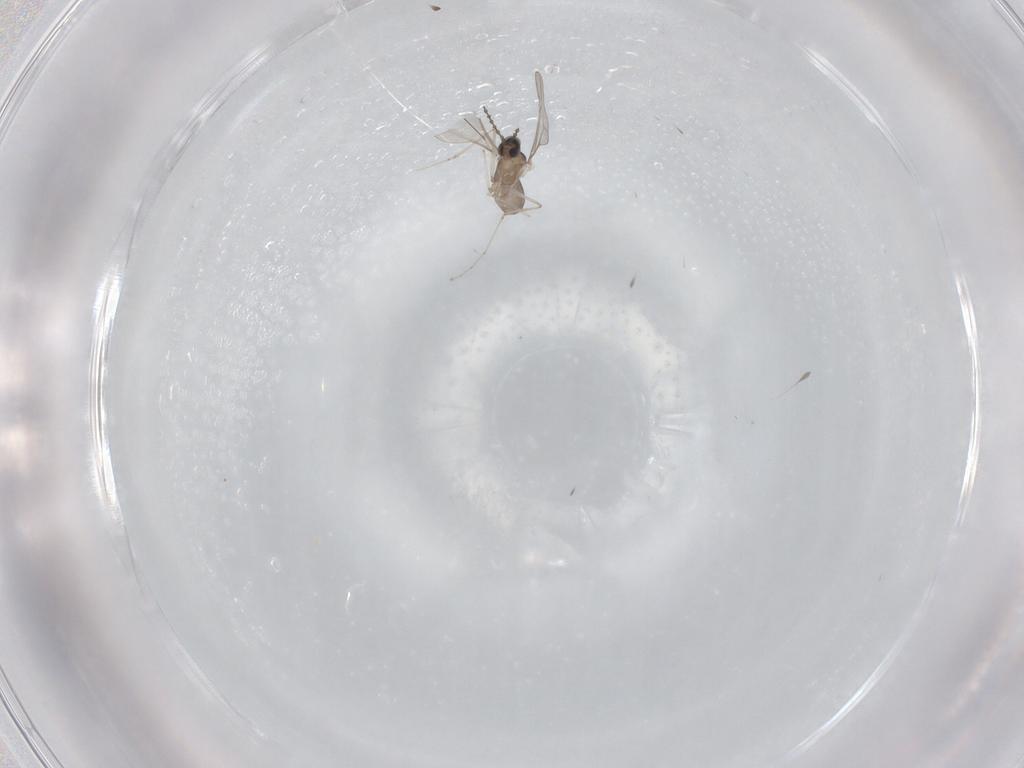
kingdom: Animalia
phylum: Arthropoda
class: Insecta
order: Diptera
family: Cecidomyiidae
